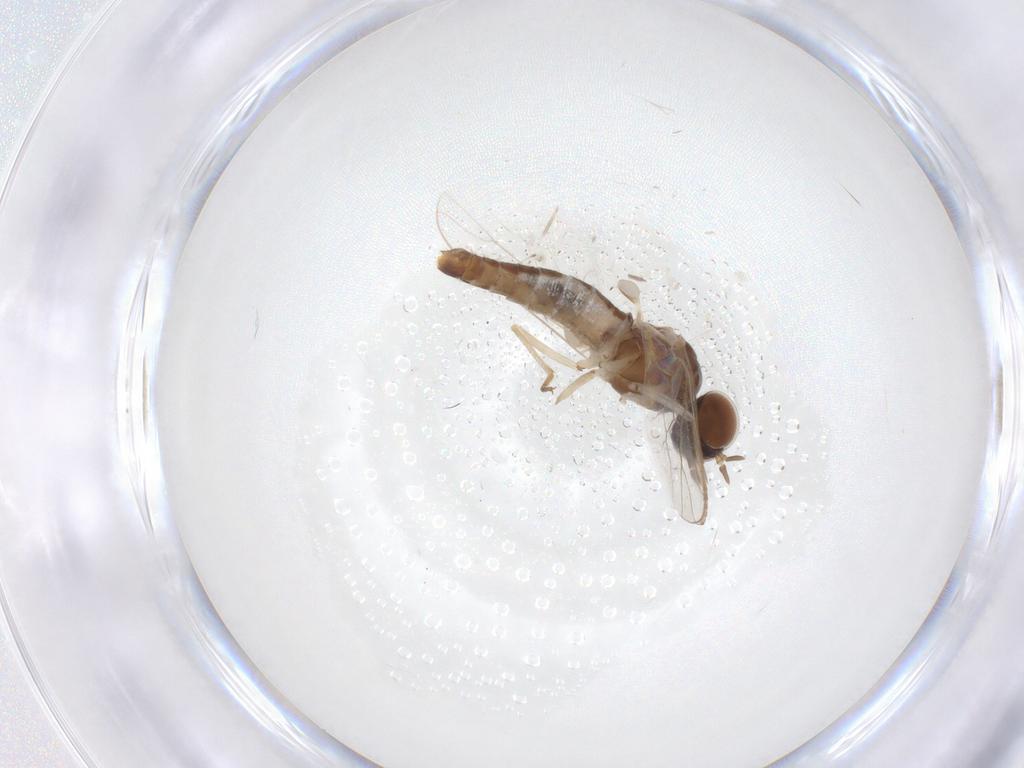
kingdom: Animalia
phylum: Arthropoda
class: Insecta
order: Diptera
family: Scenopinidae
